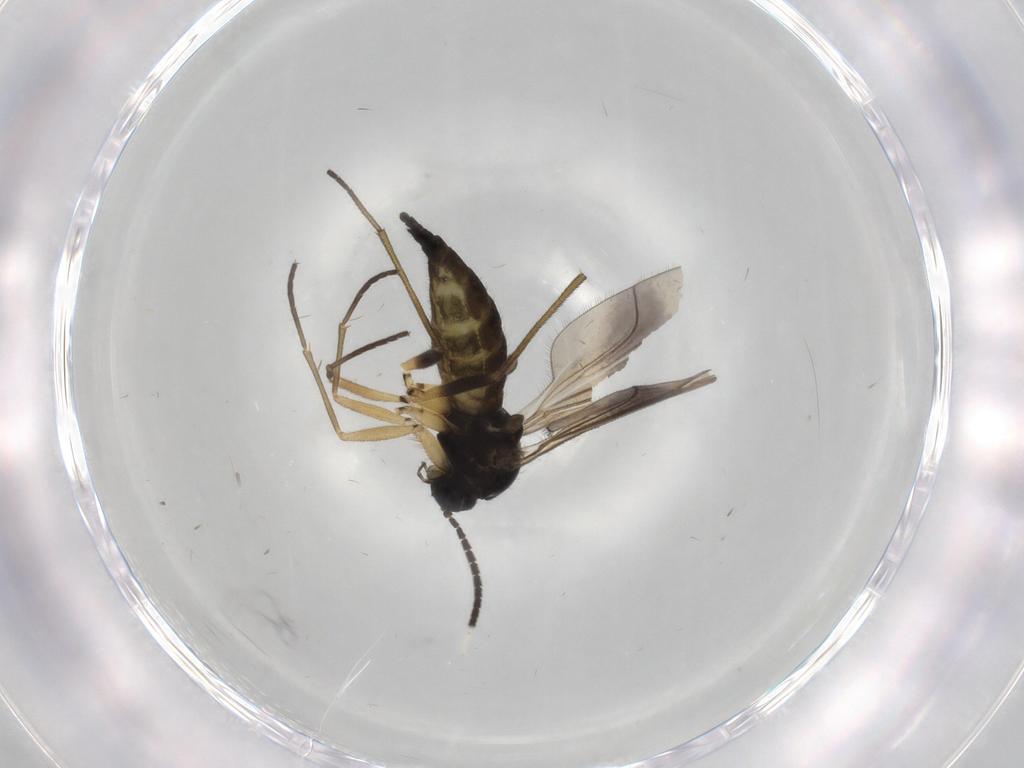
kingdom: Animalia
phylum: Arthropoda
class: Insecta
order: Diptera
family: Sciaridae
